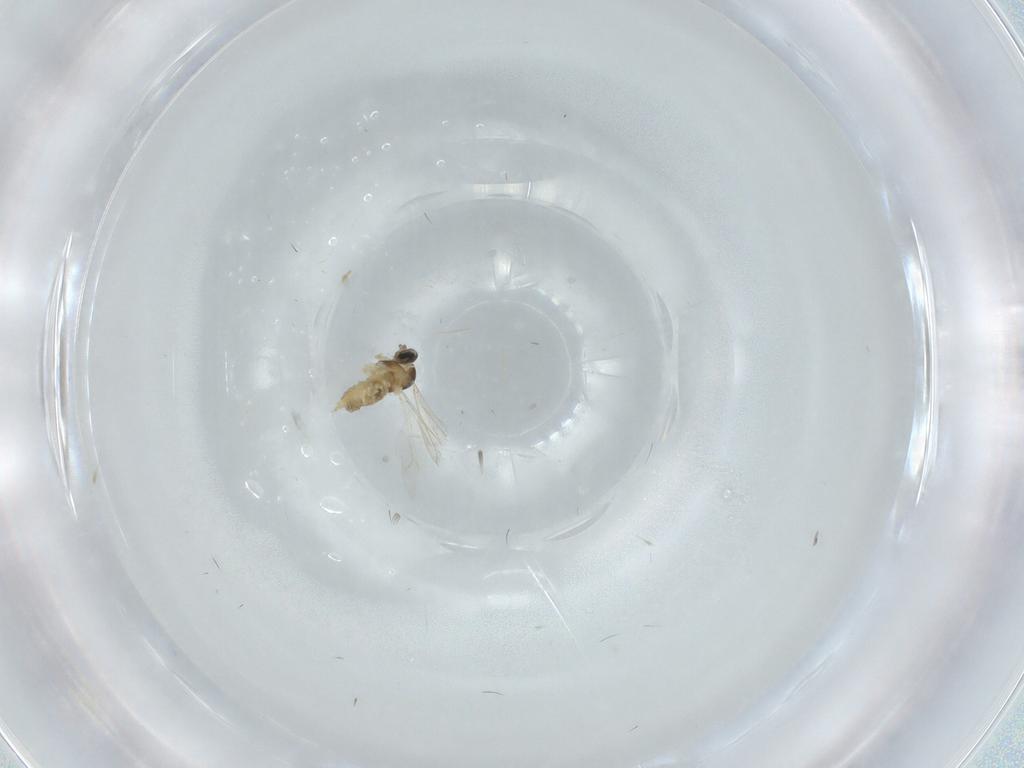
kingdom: Animalia
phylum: Arthropoda
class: Insecta
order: Diptera
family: Cecidomyiidae
